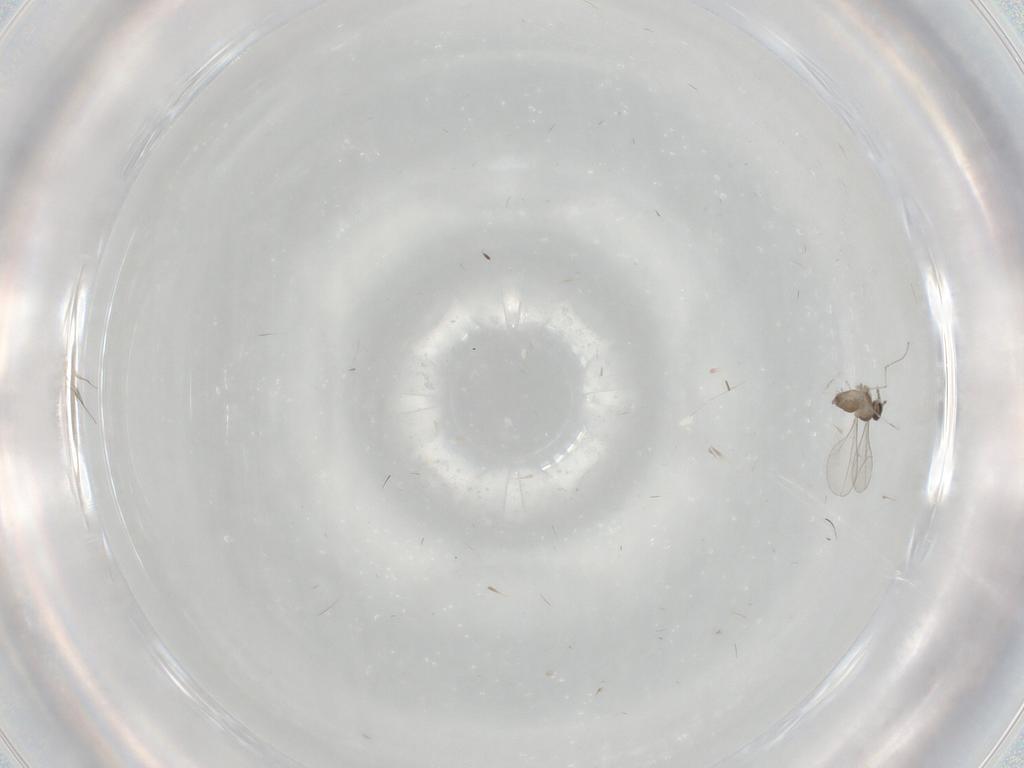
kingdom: Animalia
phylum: Arthropoda
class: Insecta
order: Diptera
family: Cecidomyiidae
